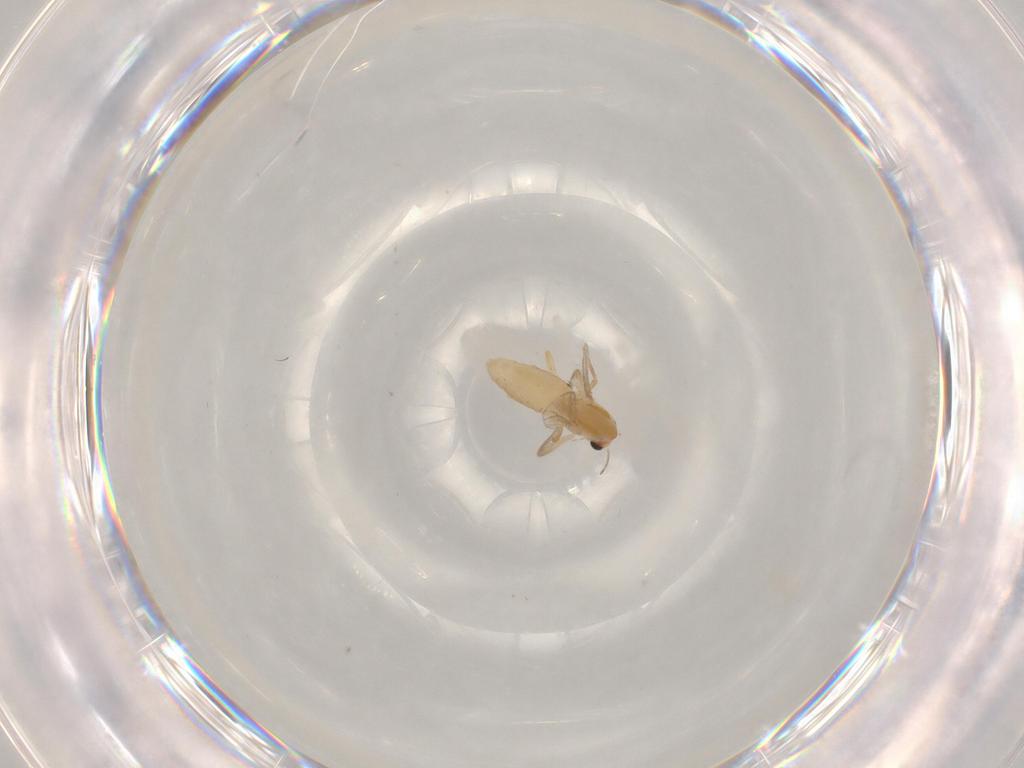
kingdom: Animalia
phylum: Arthropoda
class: Insecta
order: Diptera
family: Chironomidae
